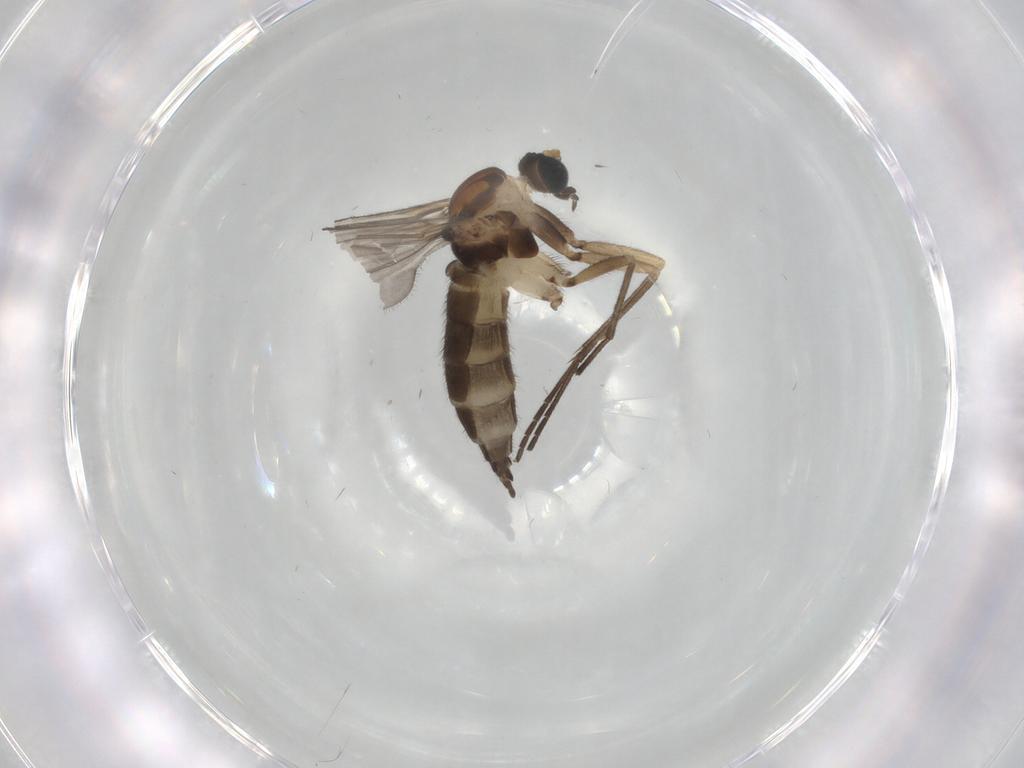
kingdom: Animalia
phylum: Arthropoda
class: Insecta
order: Diptera
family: Sciaridae
